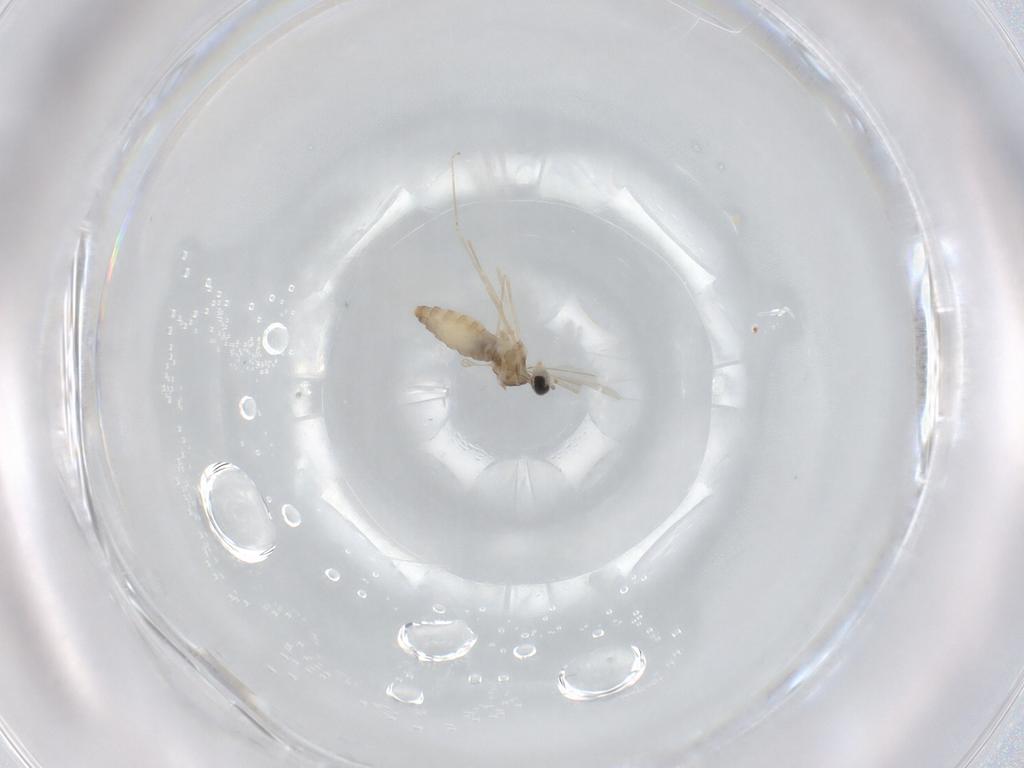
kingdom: Animalia
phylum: Arthropoda
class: Insecta
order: Diptera
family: Cecidomyiidae
